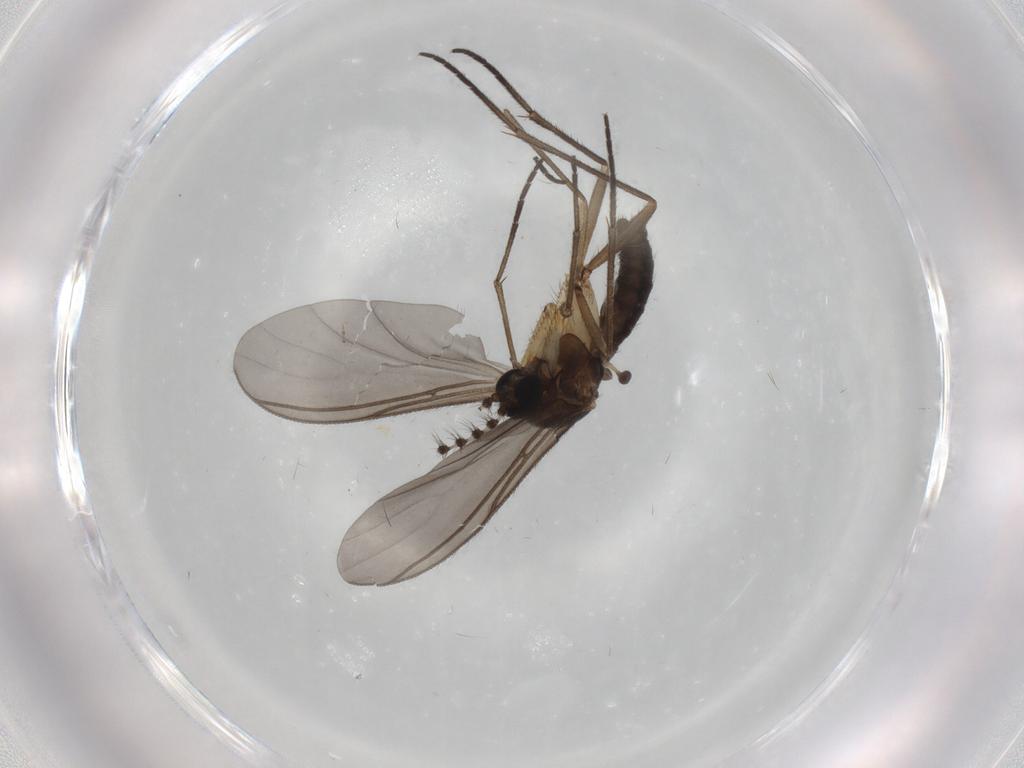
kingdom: Animalia
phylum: Arthropoda
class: Insecta
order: Diptera
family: Sciaridae
